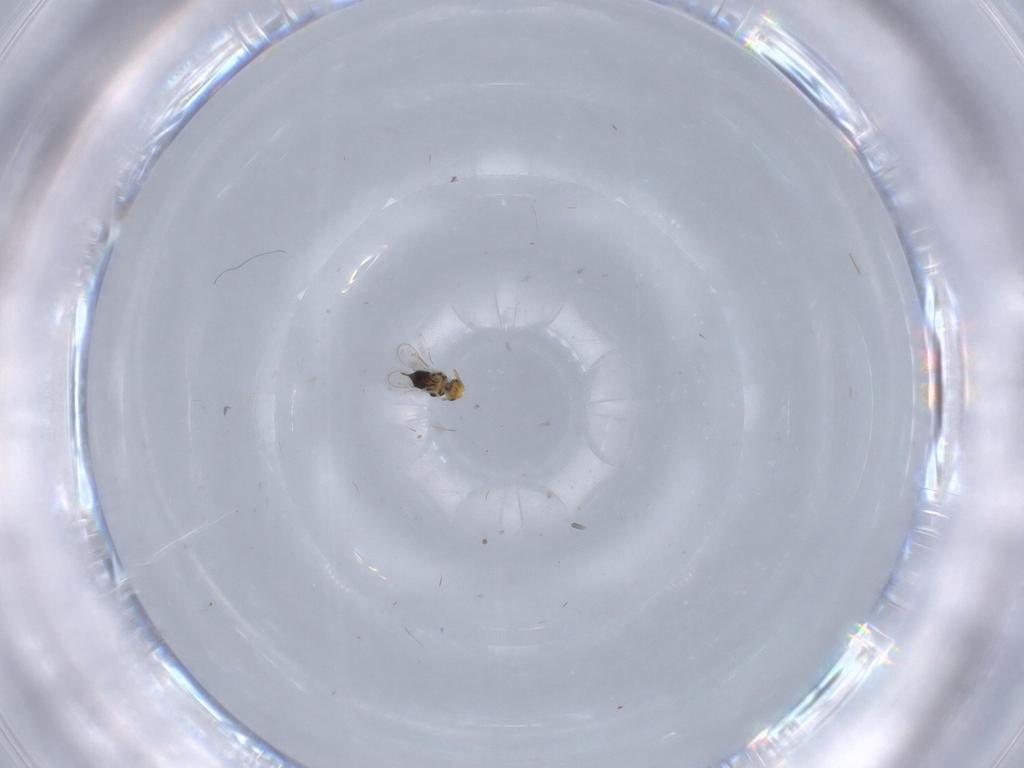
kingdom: Animalia
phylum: Arthropoda
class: Insecta
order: Hymenoptera
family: Aphelinidae
